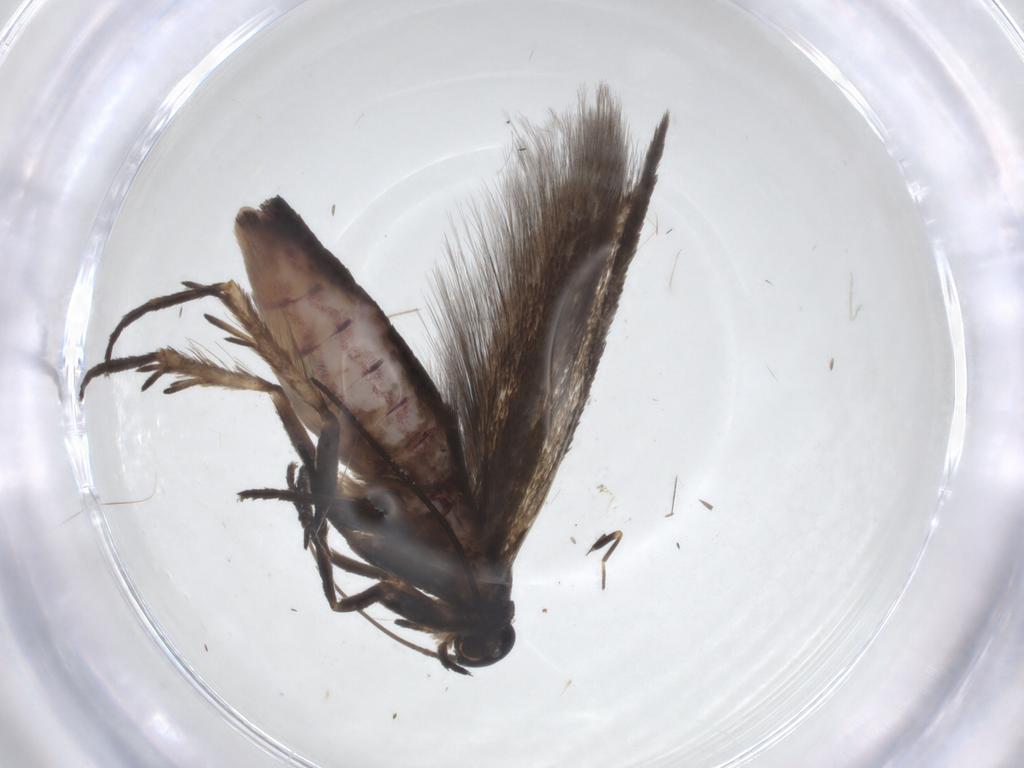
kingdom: Animalia
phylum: Arthropoda
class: Insecta
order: Lepidoptera
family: Scythrididae
